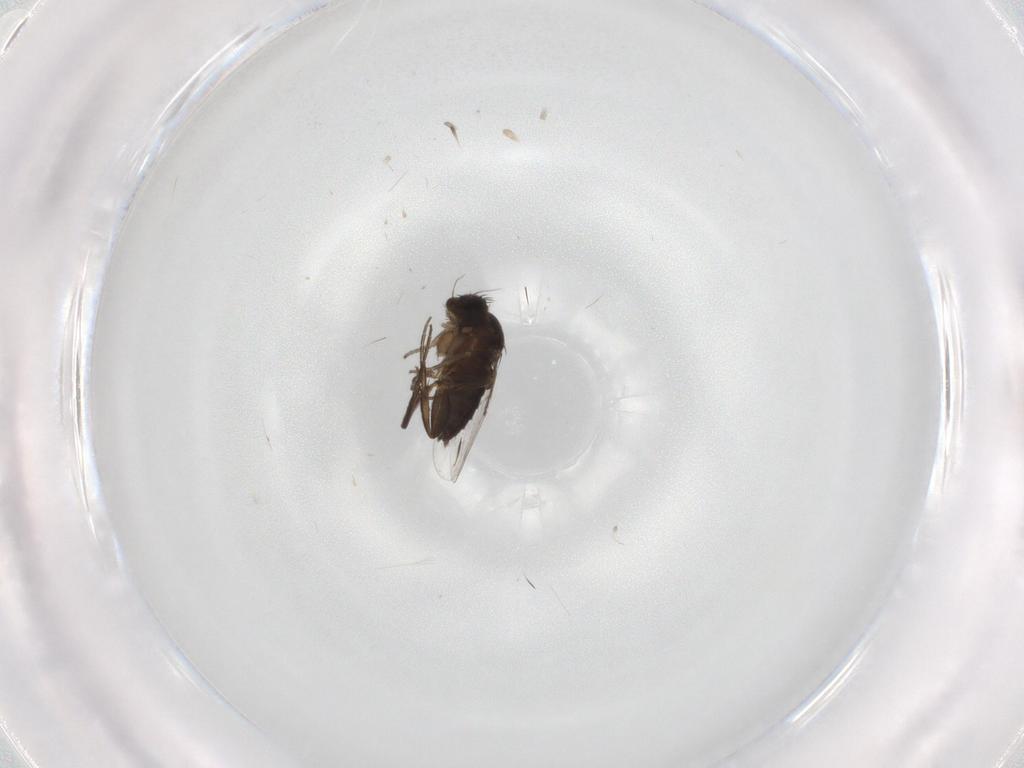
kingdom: Animalia
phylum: Arthropoda
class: Insecta
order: Diptera
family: Phoridae
